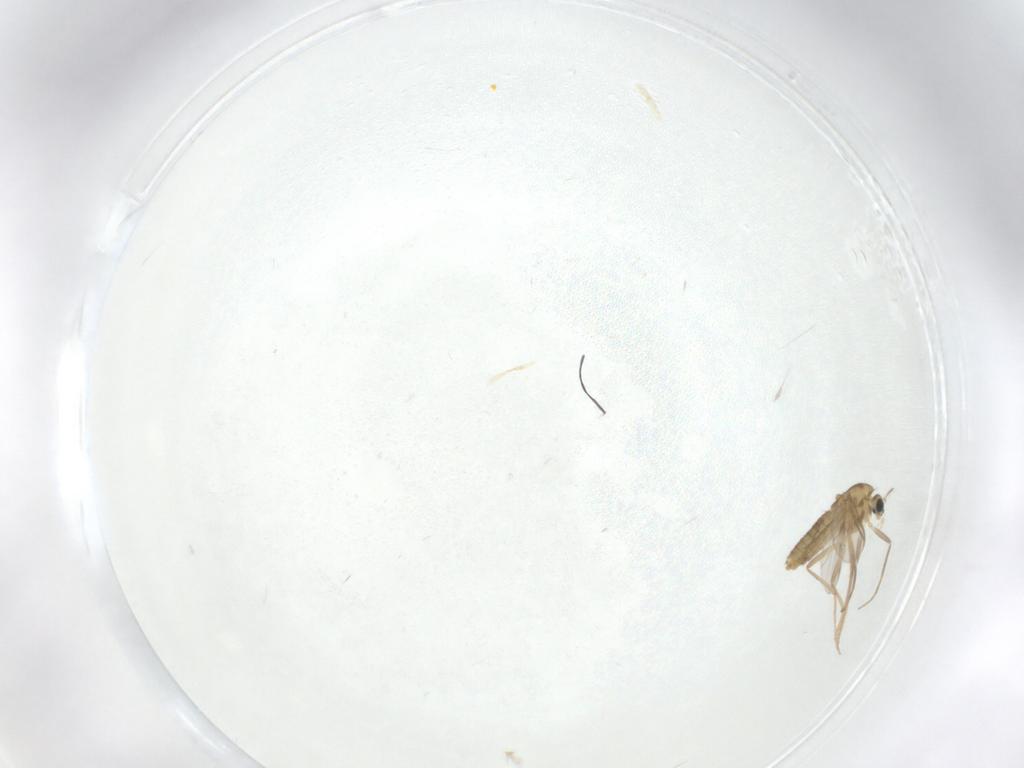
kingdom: Animalia
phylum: Arthropoda
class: Insecta
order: Diptera
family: Chironomidae
